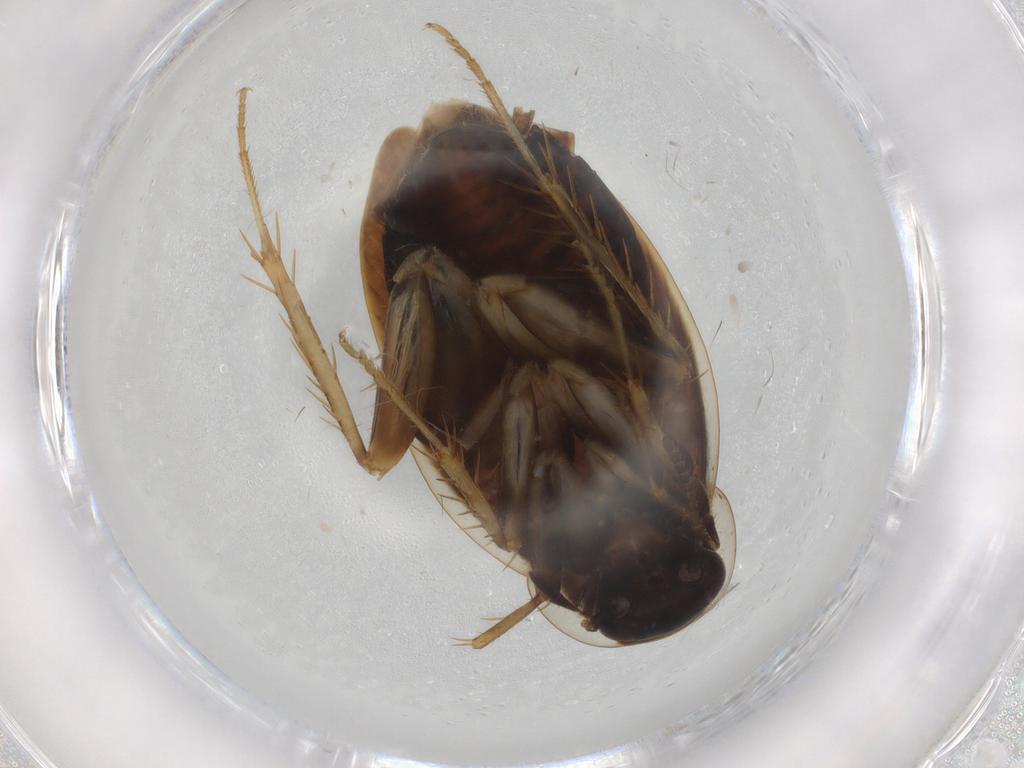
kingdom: Animalia
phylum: Arthropoda
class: Insecta
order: Blattodea
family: Ectobiidae
